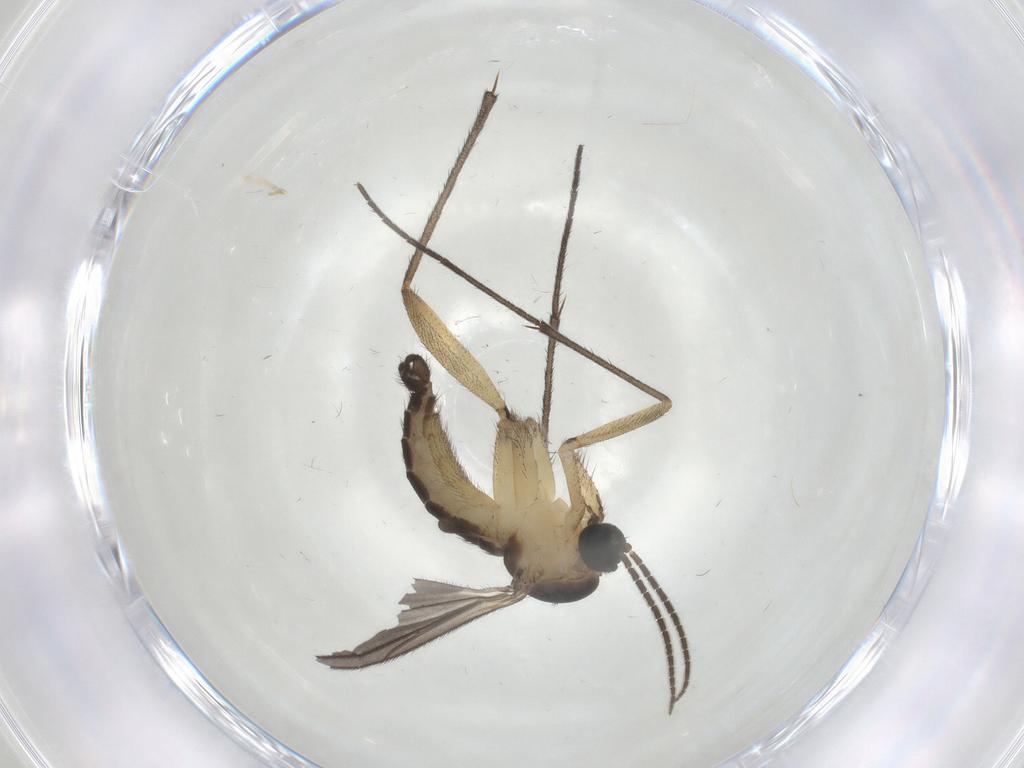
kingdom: Animalia
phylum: Arthropoda
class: Insecta
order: Diptera
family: Sciaridae
